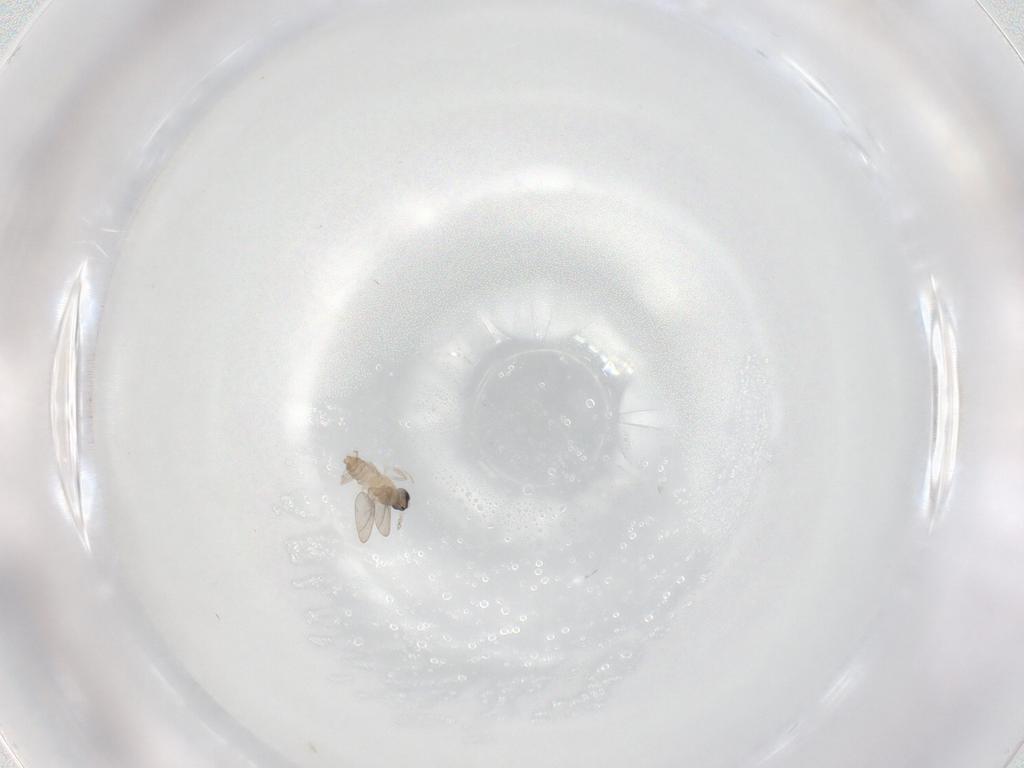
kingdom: Animalia
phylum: Arthropoda
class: Insecta
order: Diptera
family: Cecidomyiidae
